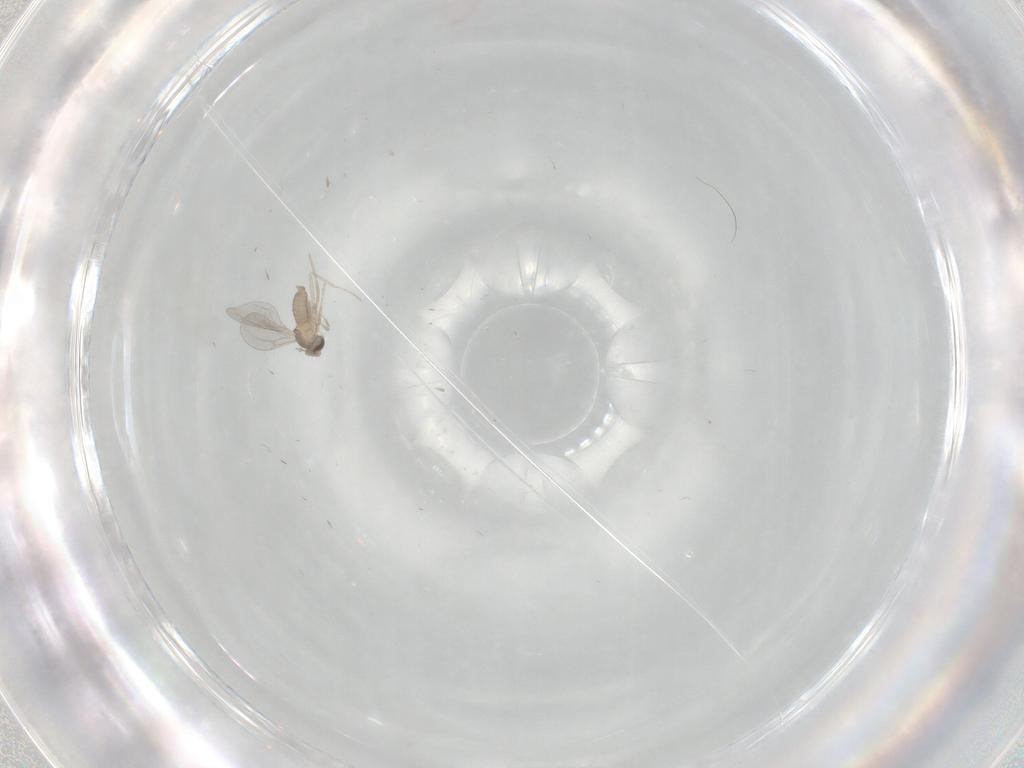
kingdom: Animalia
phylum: Arthropoda
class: Insecta
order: Diptera
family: Cecidomyiidae
